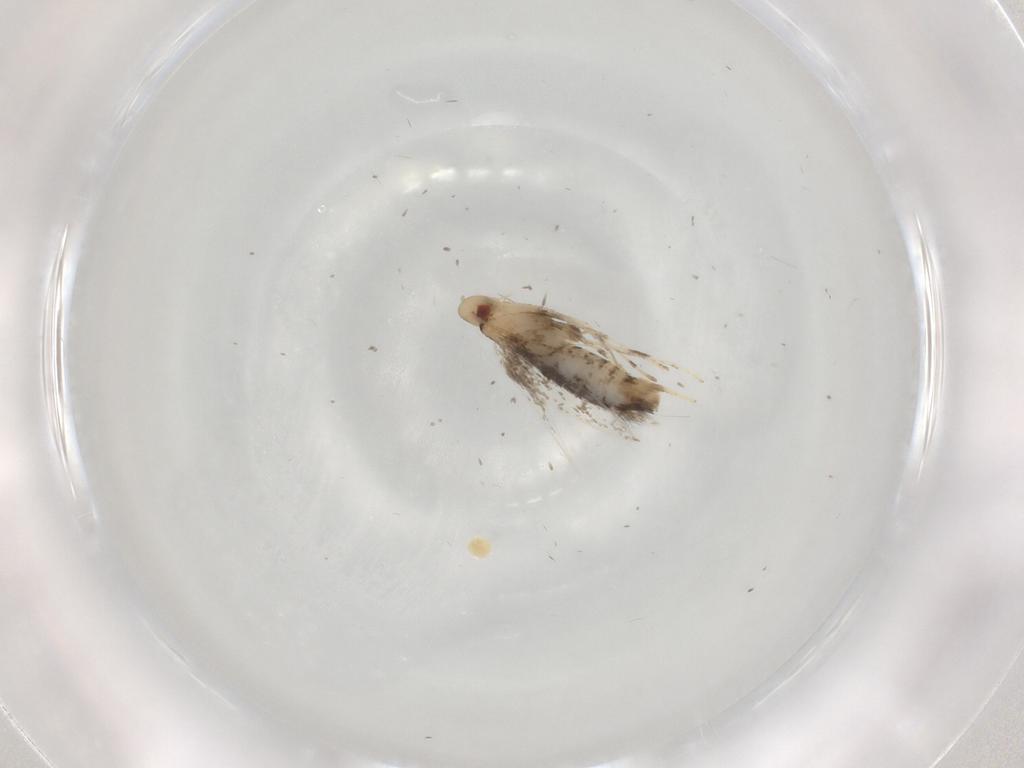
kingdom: Animalia
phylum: Arthropoda
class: Insecta
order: Lepidoptera
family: Gracillariidae
